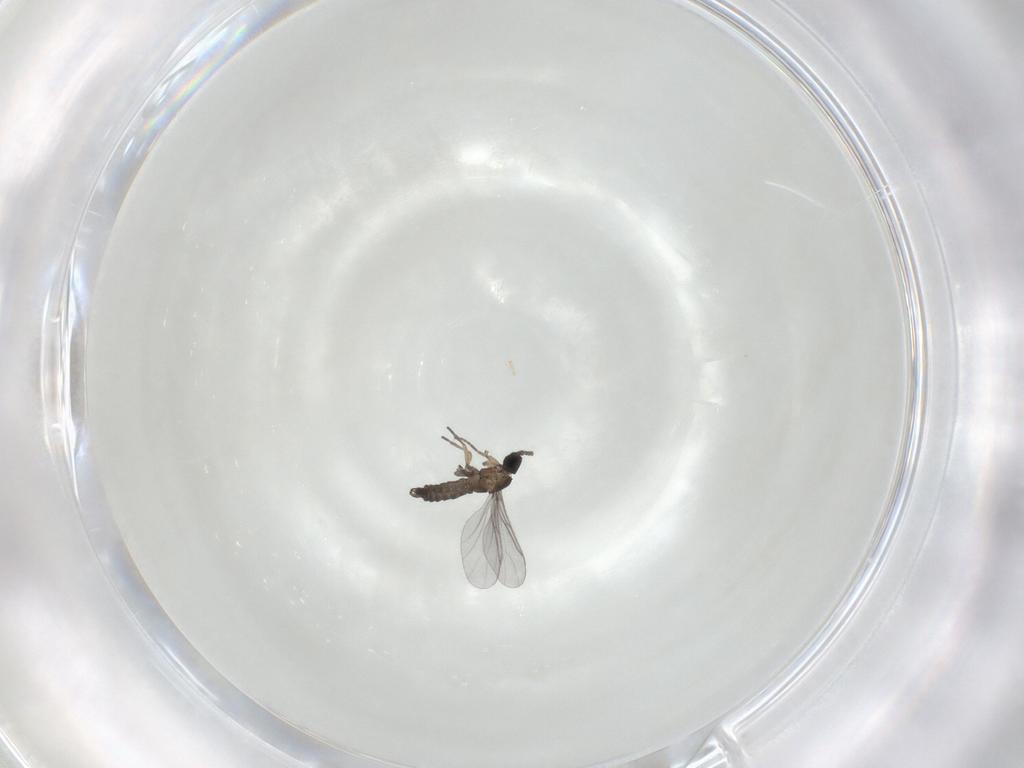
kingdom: Animalia
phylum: Arthropoda
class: Insecta
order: Diptera
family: Sciaridae
